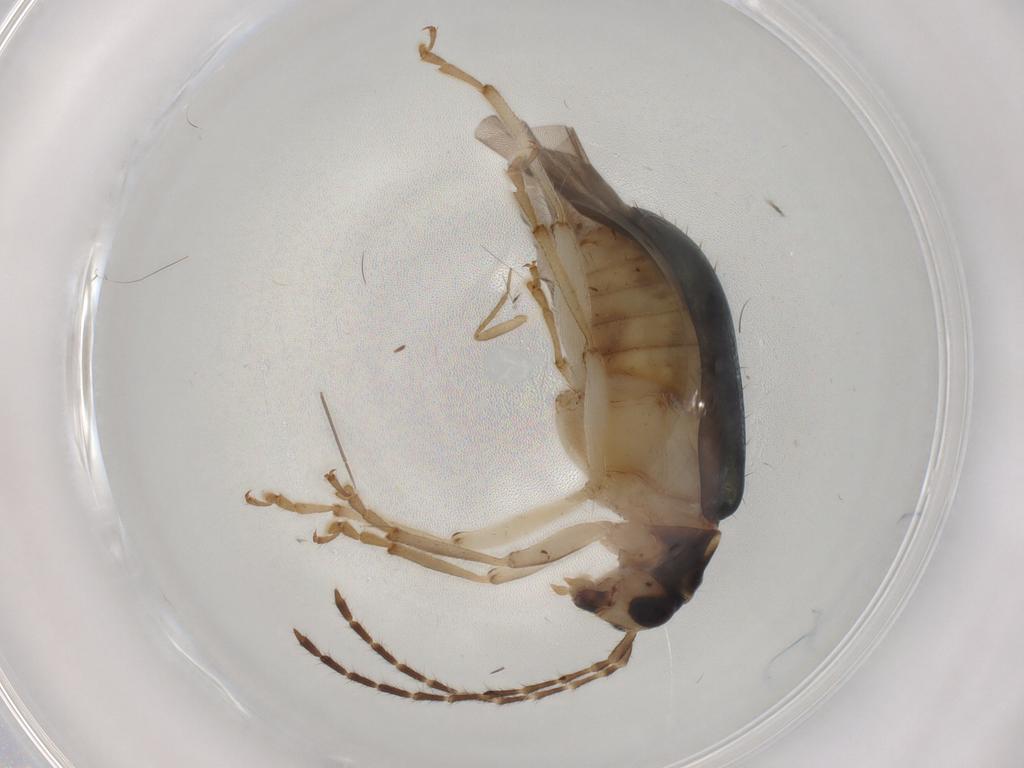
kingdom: Animalia
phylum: Arthropoda
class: Insecta
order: Coleoptera
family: Chrysomelidae
